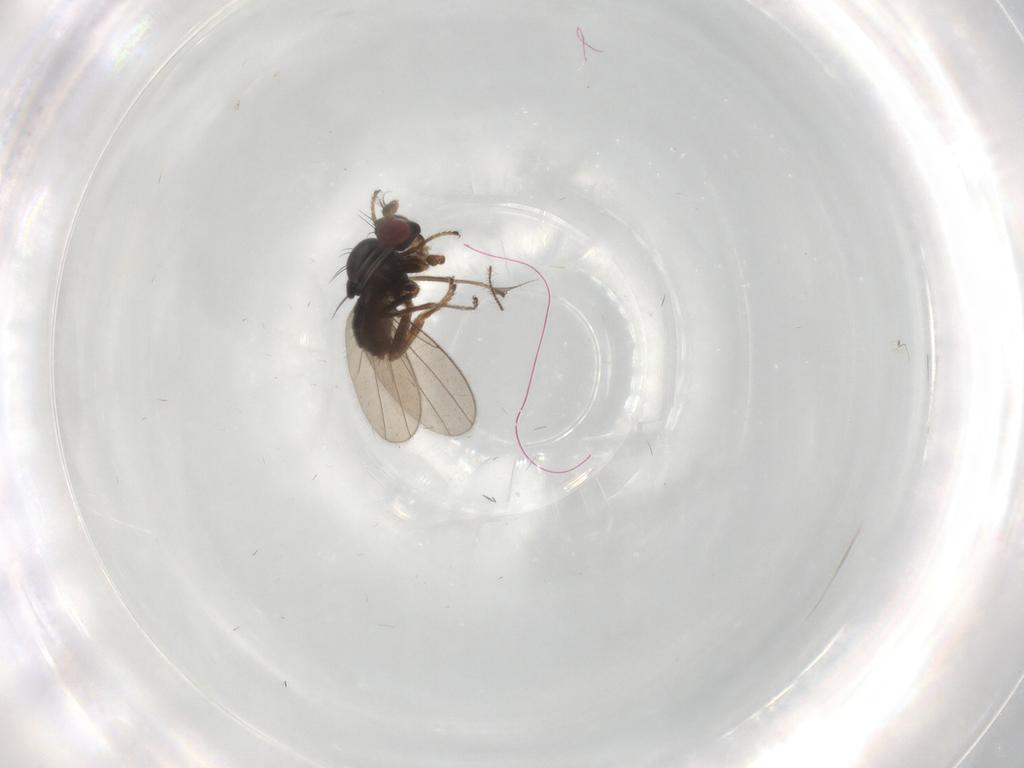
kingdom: Animalia
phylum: Arthropoda
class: Insecta
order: Diptera
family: Ephydridae
